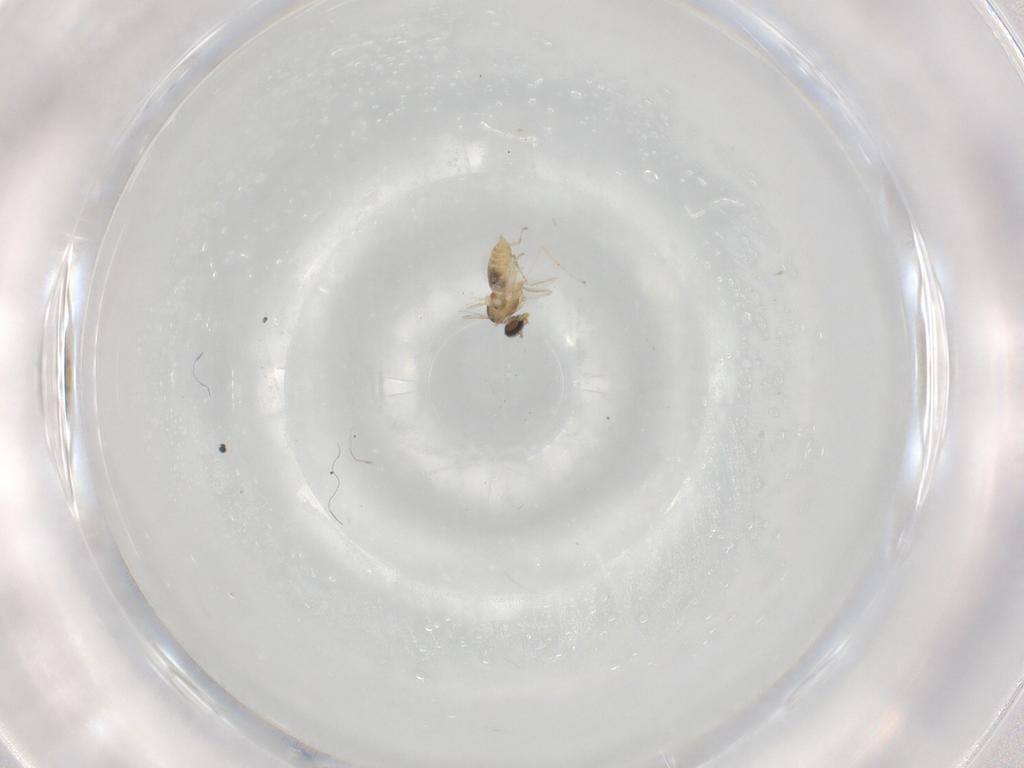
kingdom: Animalia
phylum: Arthropoda
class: Insecta
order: Diptera
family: Cecidomyiidae
